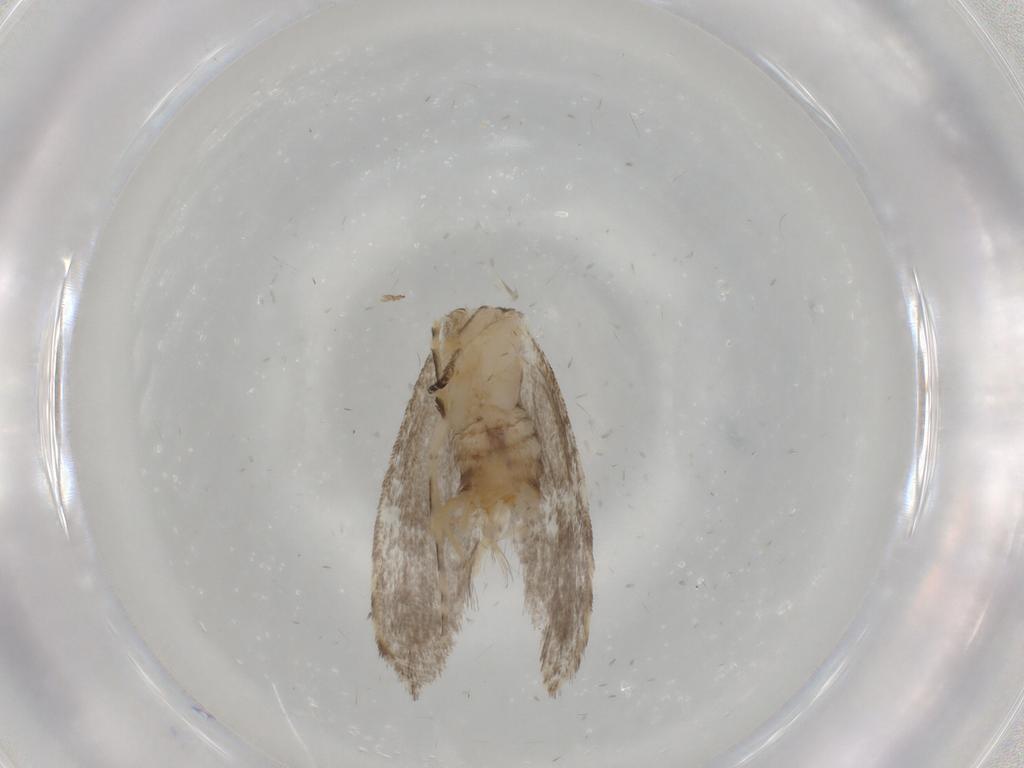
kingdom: Animalia
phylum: Arthropoda
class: Insecta
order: Lepidoptera
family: Tineidae
